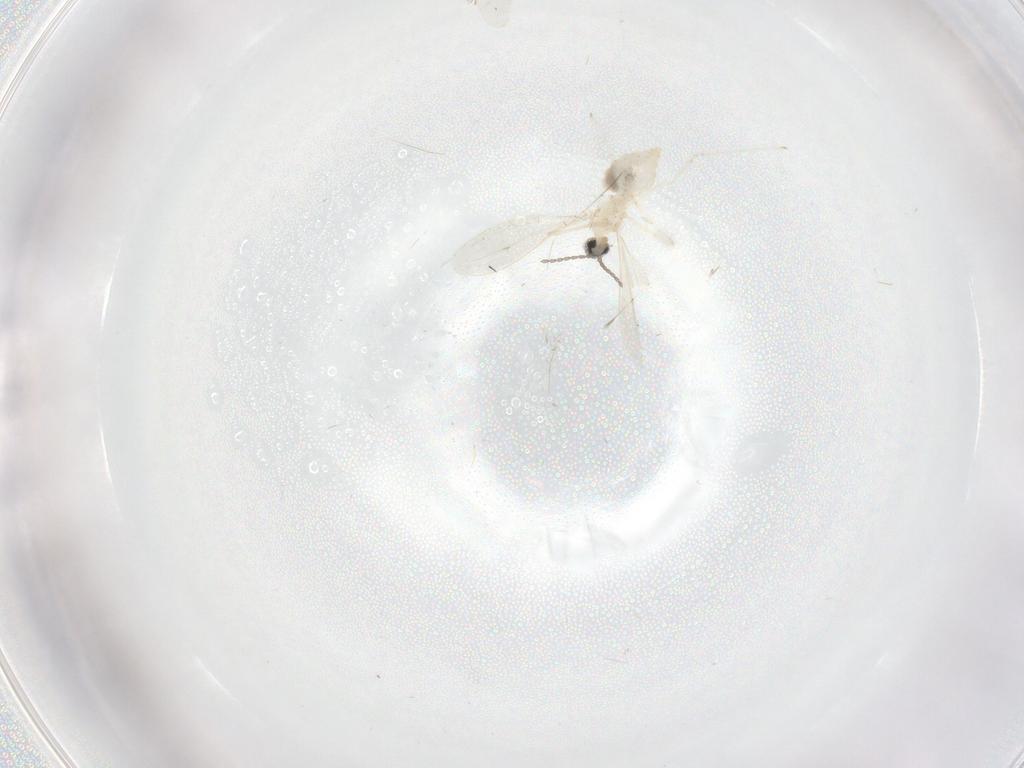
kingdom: Animalia
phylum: Arthropoda
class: Insecta
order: Diptera
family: Cecidomyiidae
